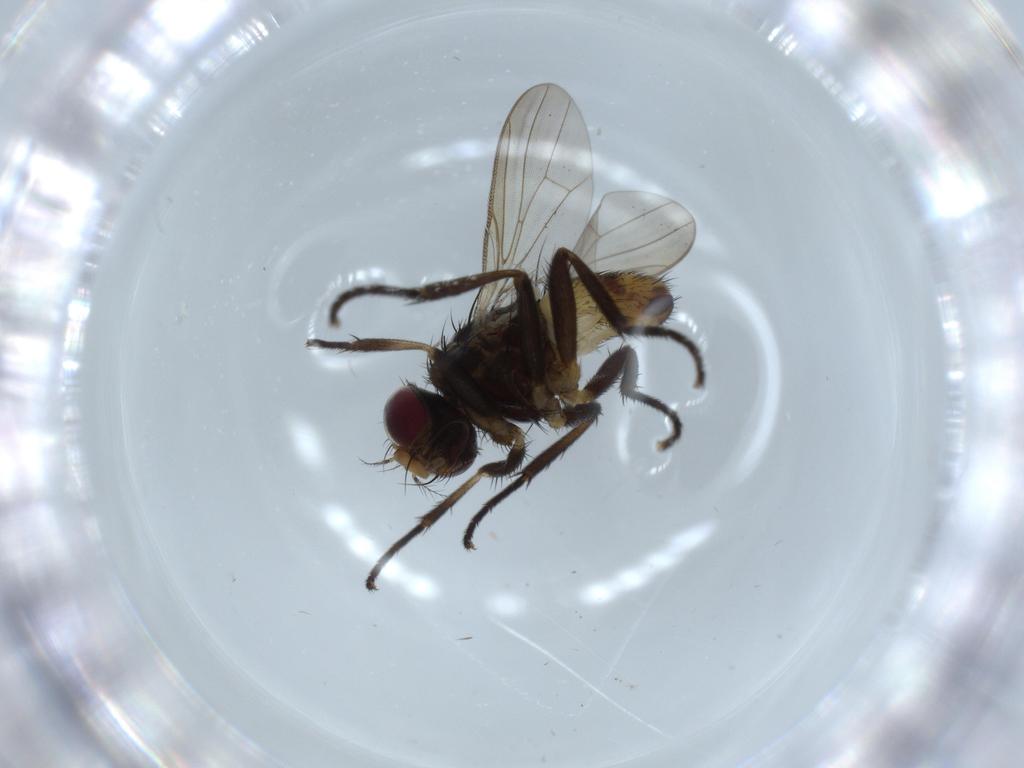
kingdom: Animalia
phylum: Arthropoda
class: Insecta
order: Diptera
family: Anthomyiidae
